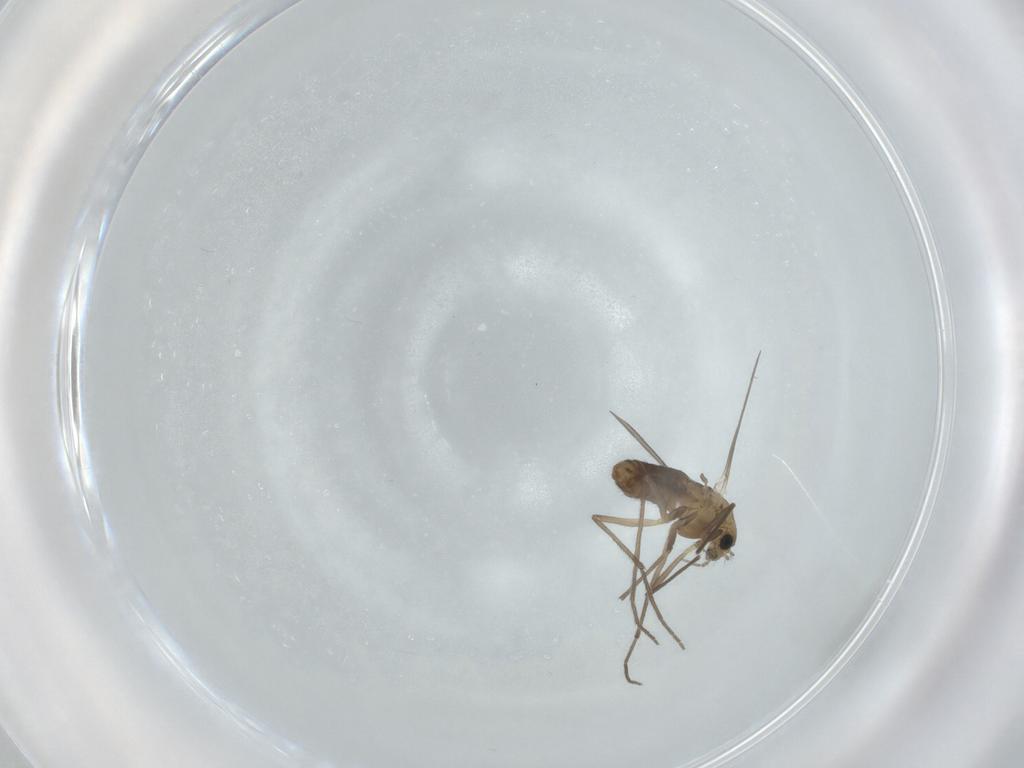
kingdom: Animalia
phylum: Arthropoda
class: Insecta
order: Diptera
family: Chironomidae
